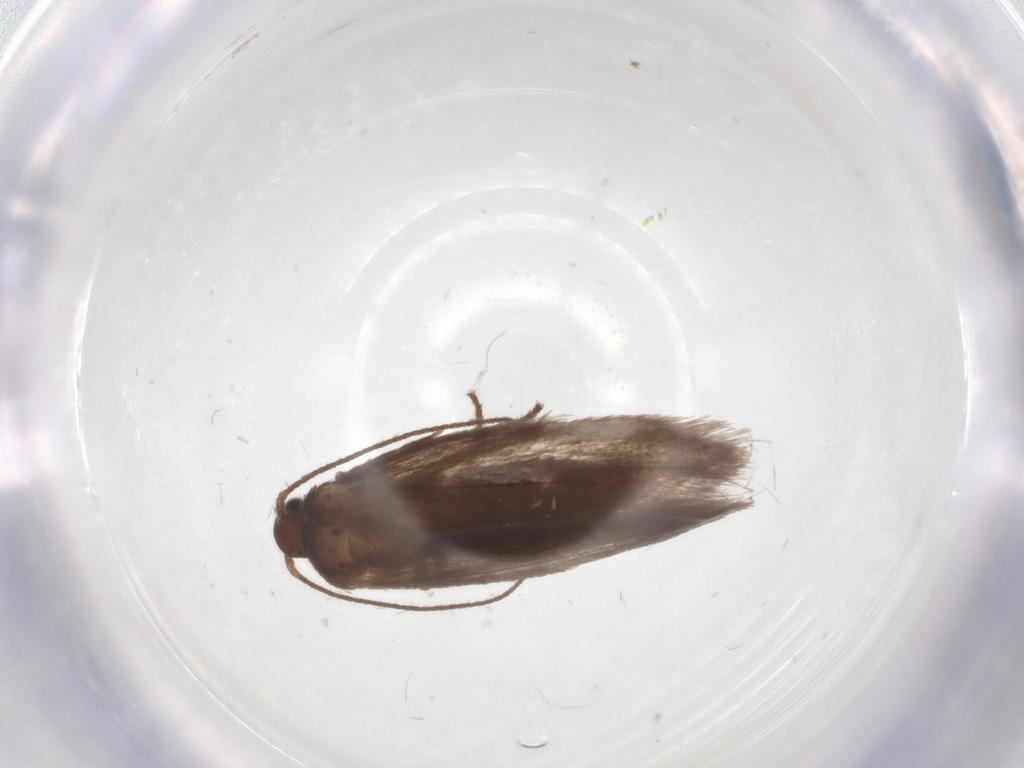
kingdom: Animalia
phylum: Arthropoda
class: Insecta
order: Lepidoptera
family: Limacodidae
